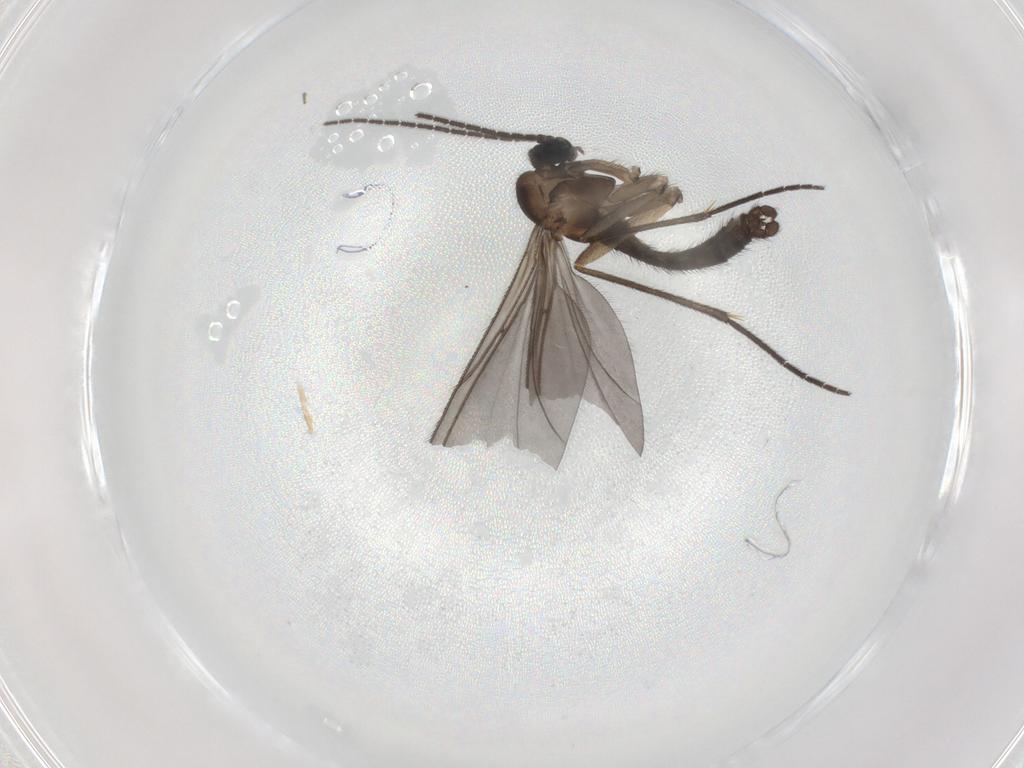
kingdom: Animalia
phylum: Arthropoda
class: Insecta
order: Diptera
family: Sciaridae
